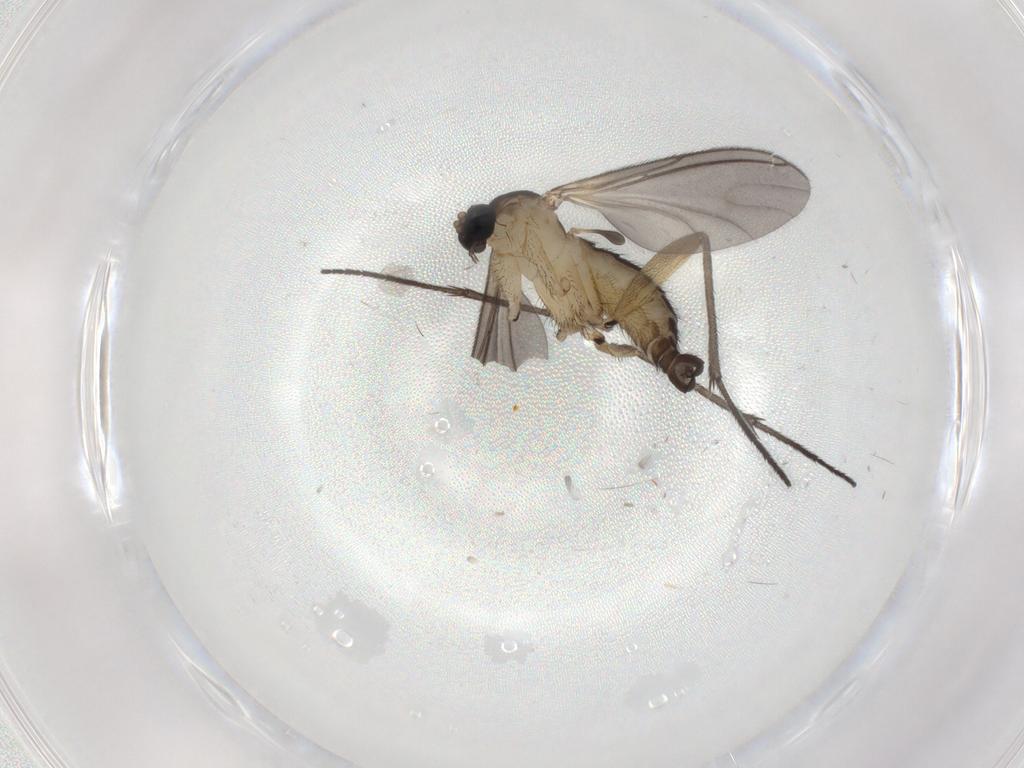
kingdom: Animalia
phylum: Arthropoda
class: Insecta
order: Diptera
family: Sciaridae
